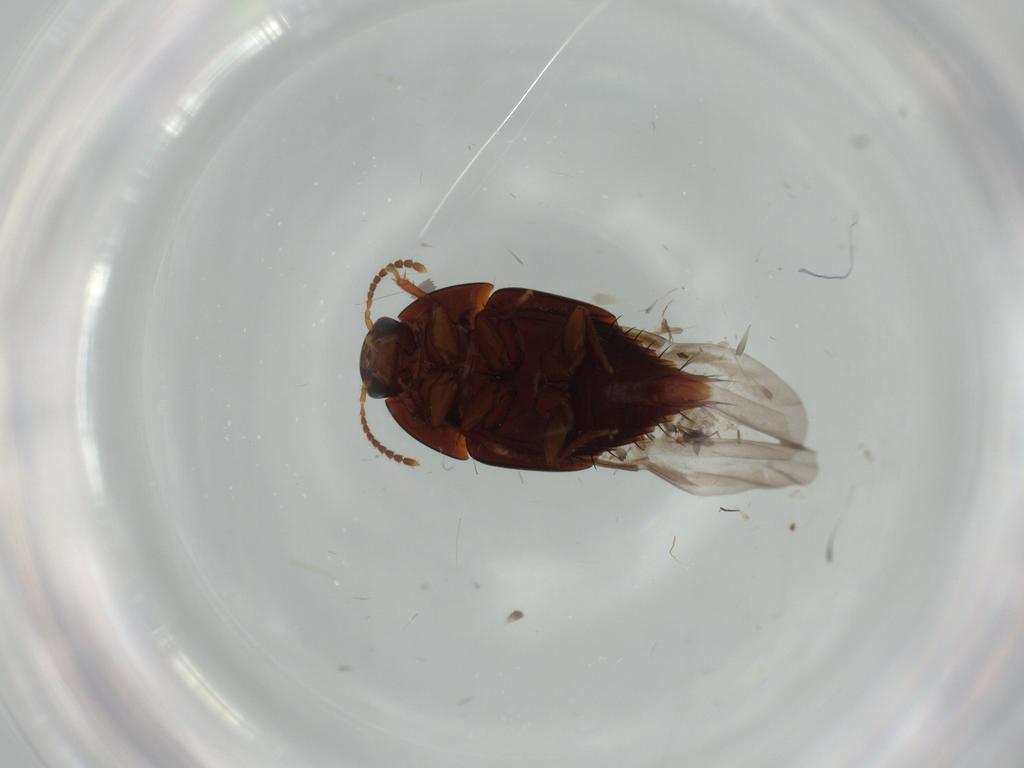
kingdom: Animalia
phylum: Arthropoda
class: Insecta
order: Coleoptera
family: Staphylinidae
